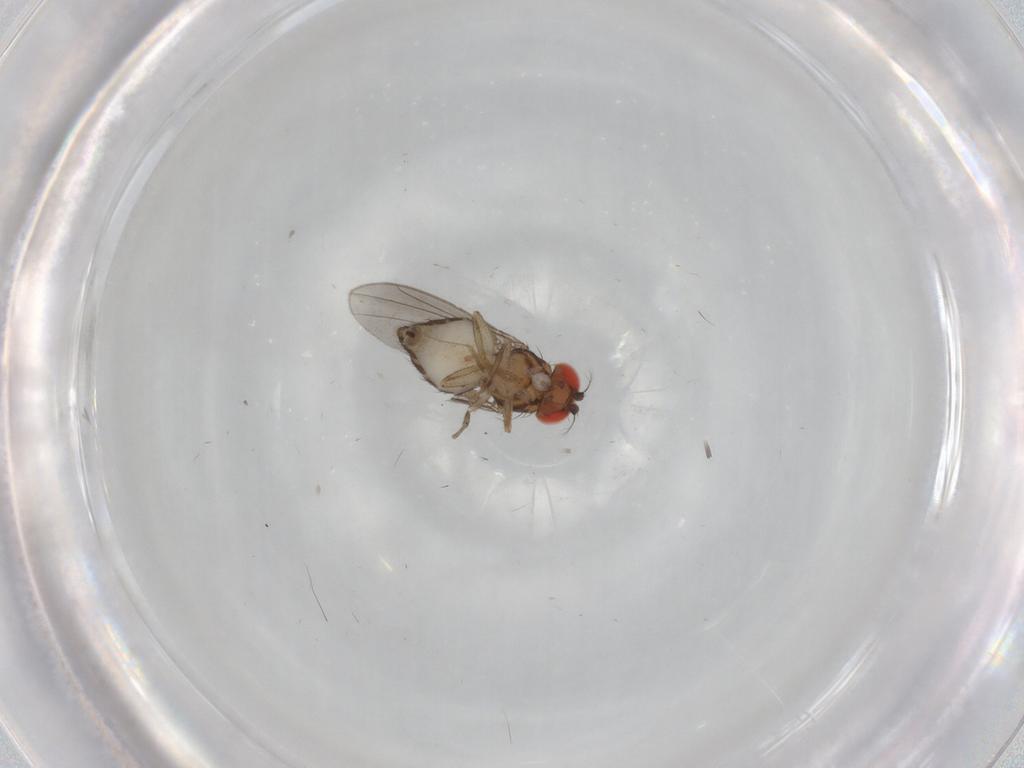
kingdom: Animalia
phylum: Arthropoda
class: Insecta
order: Diptera
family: Drosophilidae
